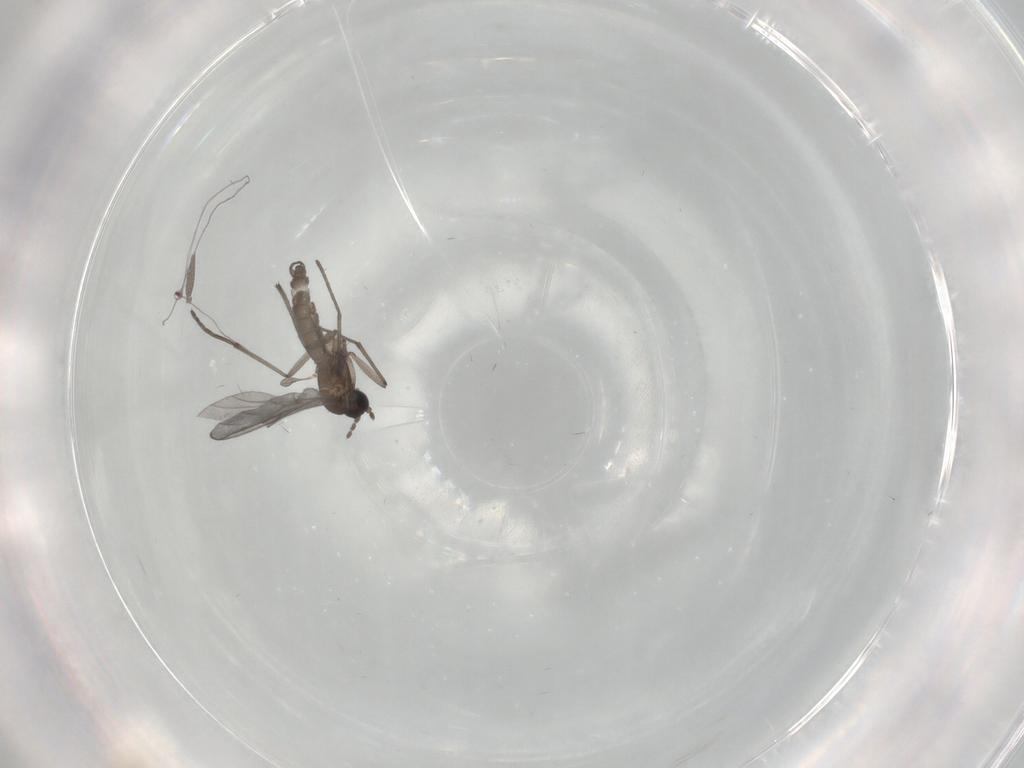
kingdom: Animalia
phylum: Arthropoda
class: Insecta
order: Diptera
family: Sciaridae
